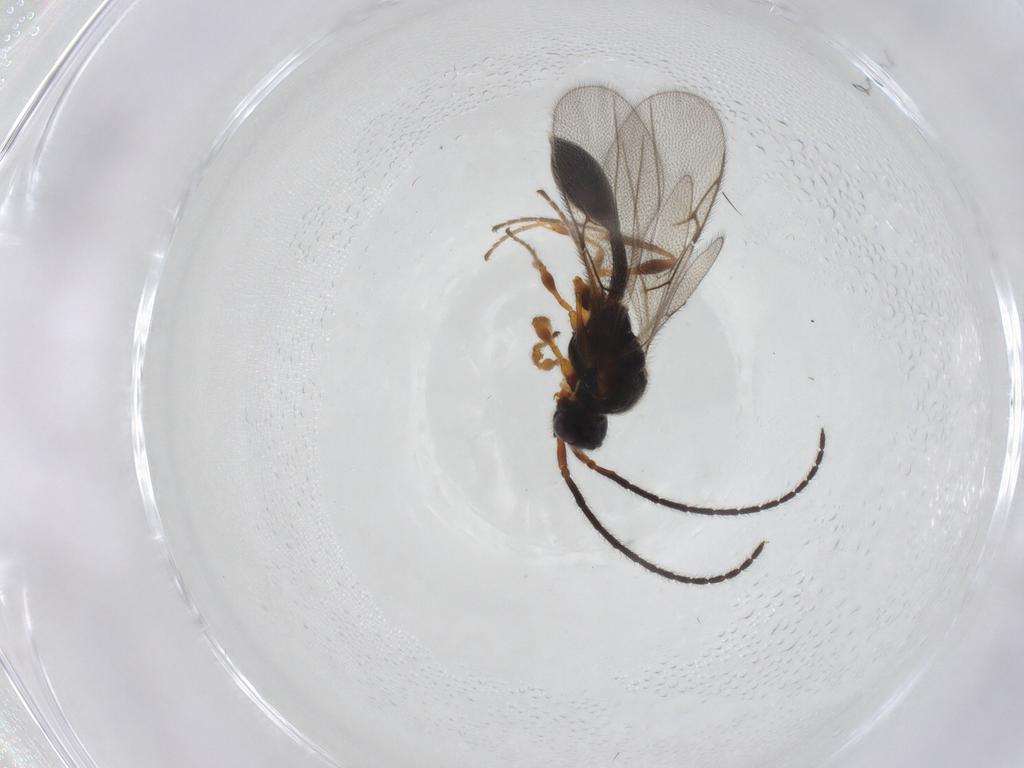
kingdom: Animalia
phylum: Arthropoda
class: Insecta
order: Hymenoptera
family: Diapriidae
